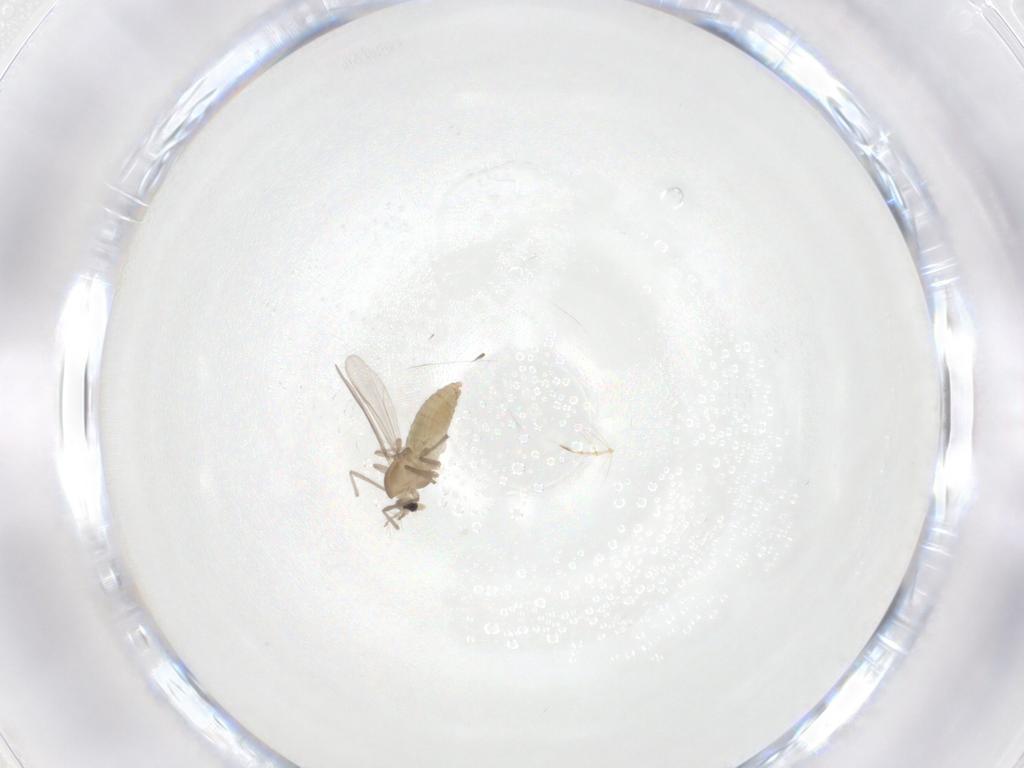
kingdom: Animalia
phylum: Arthropoda
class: Insecta
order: Diptera
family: Chironomidae
